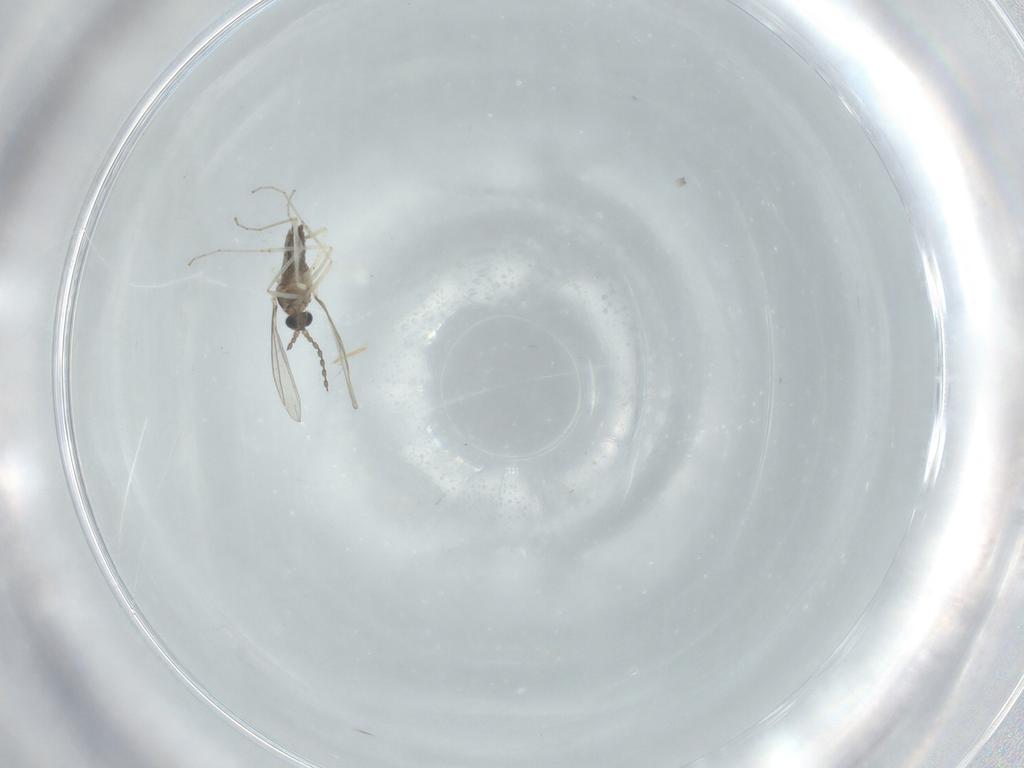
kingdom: Animalia
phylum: Arthropoda
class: Insecta
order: Diptera
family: Cecidomyiidae
